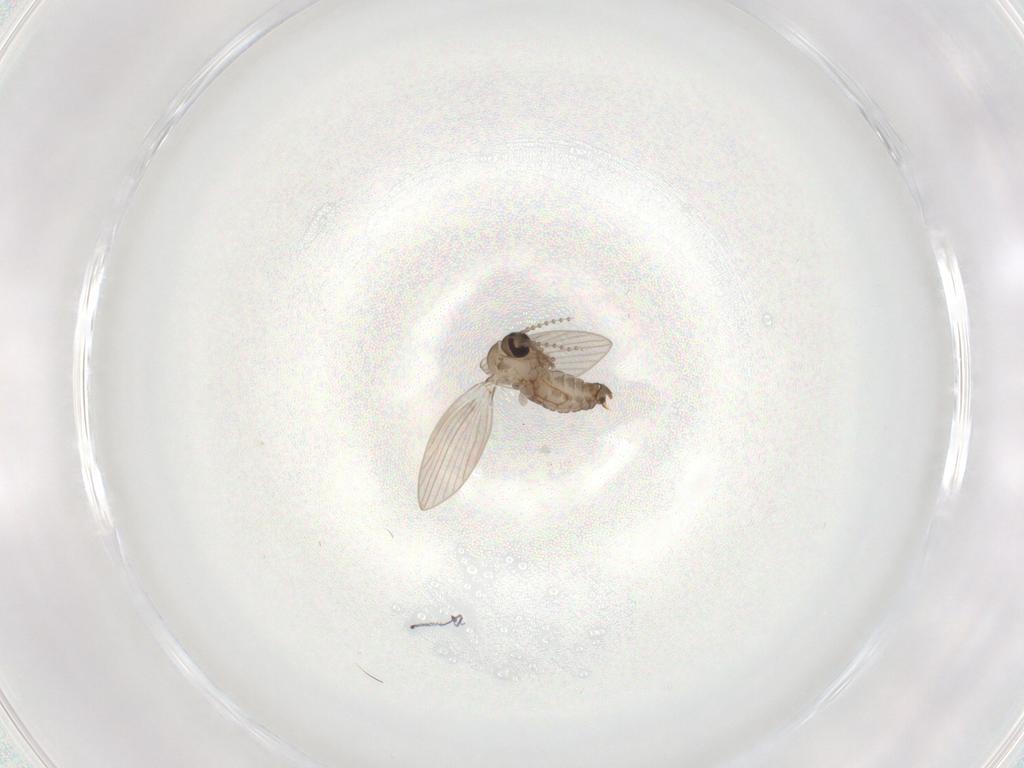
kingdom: Animalia
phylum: Arthropoda
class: Insecta
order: Diptera
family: Psychodidae
